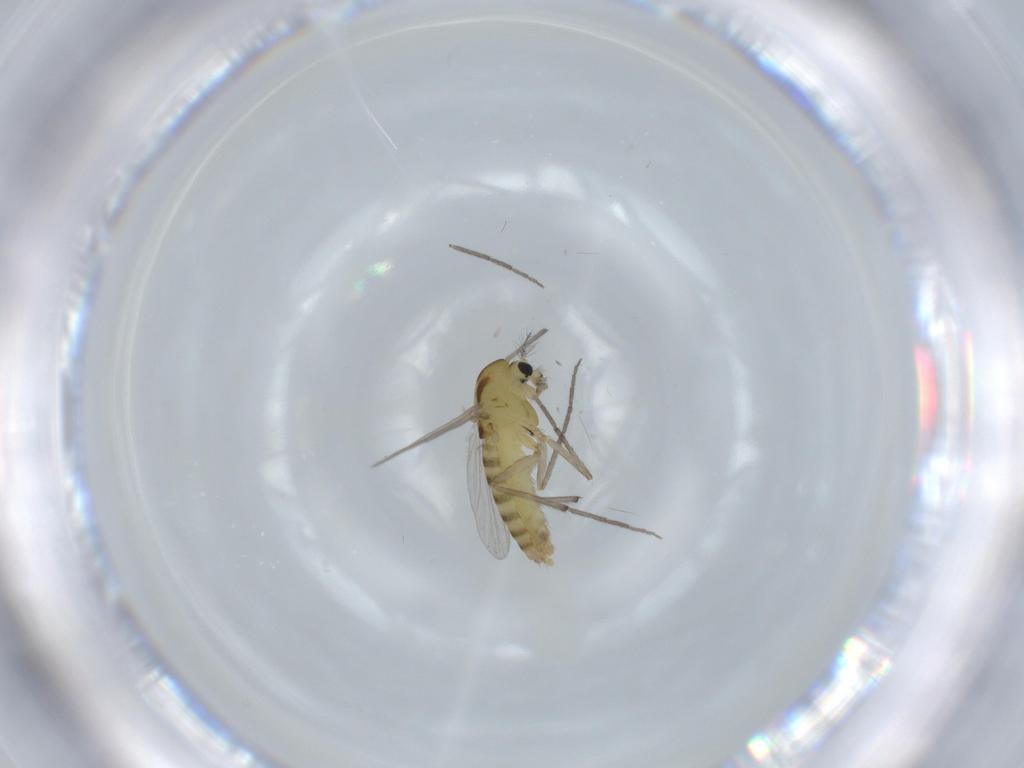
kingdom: Animalia
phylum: Arthropoda
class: Insecta
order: Diptera
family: Chironomidae
